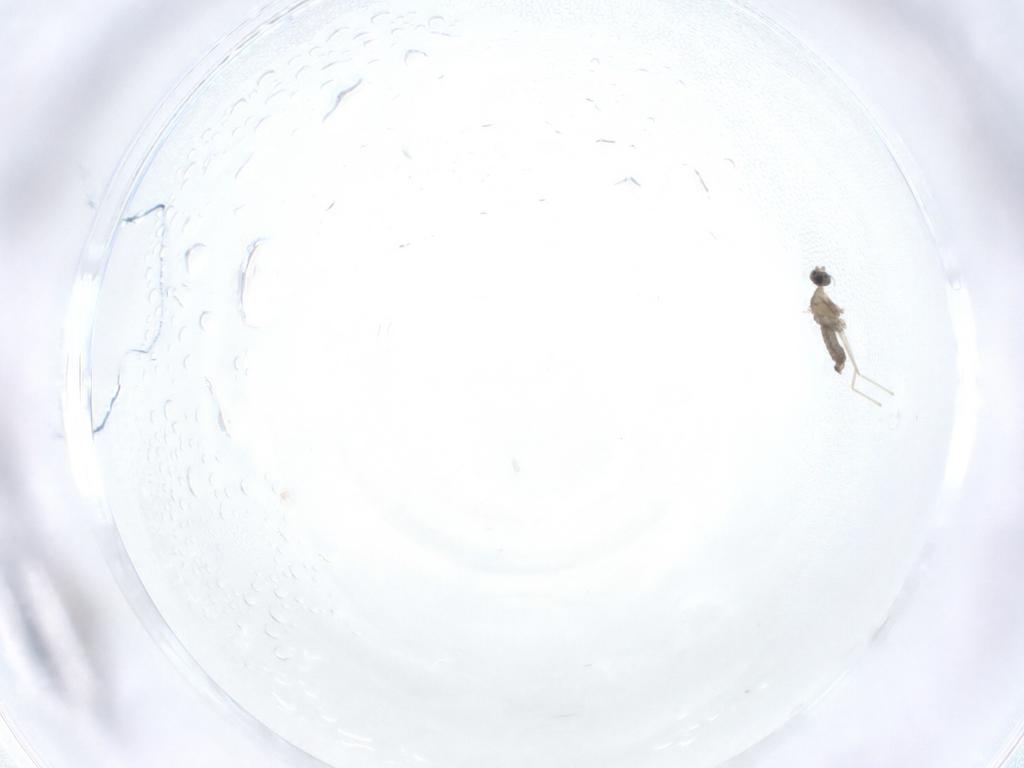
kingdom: Animalia
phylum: Arthropoda
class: Insecta
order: Diptera
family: Cecidomyiidae
